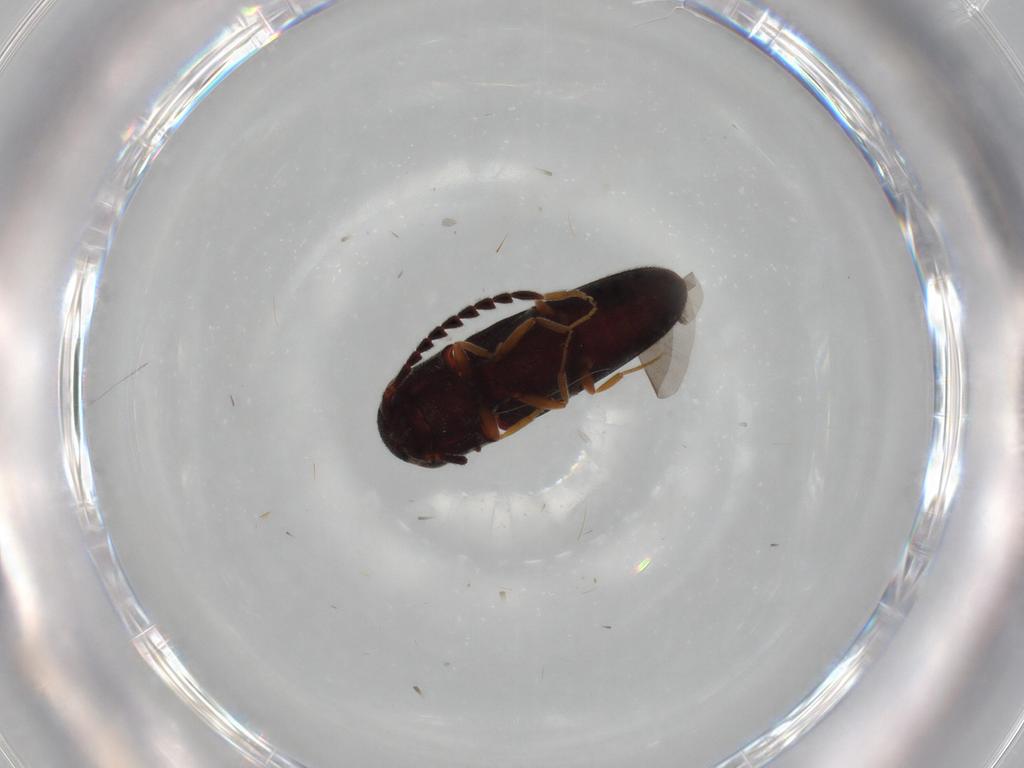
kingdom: Animalia
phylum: Arthropoda
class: Insecta
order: Coleoptera
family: Eucnemidae
